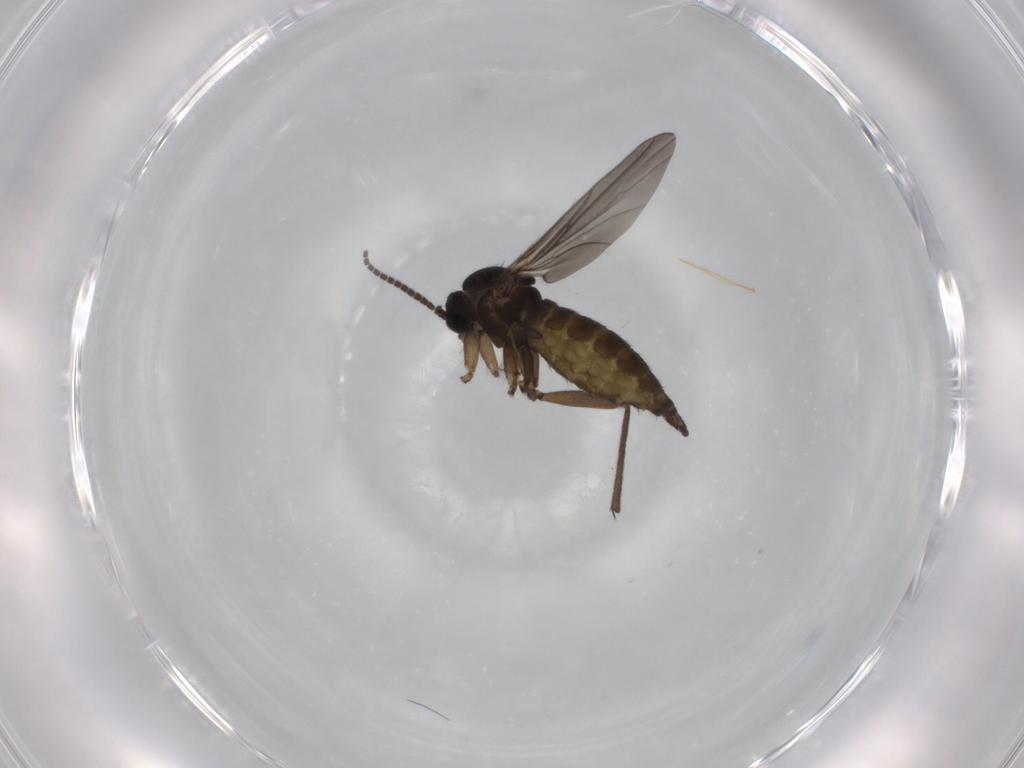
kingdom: Animalia
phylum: Arthropoda
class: Insecta
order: Diptera
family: Sciaridae
